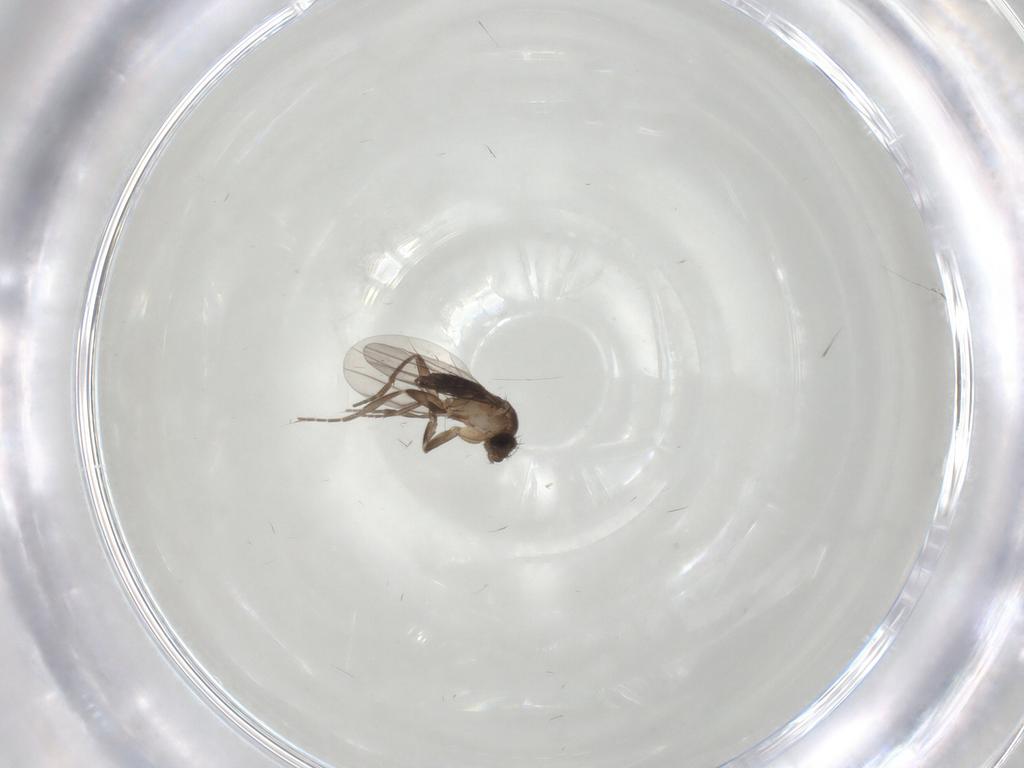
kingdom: Animalia
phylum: Arthropoda
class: Insecta
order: Diptera
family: Phoridae
